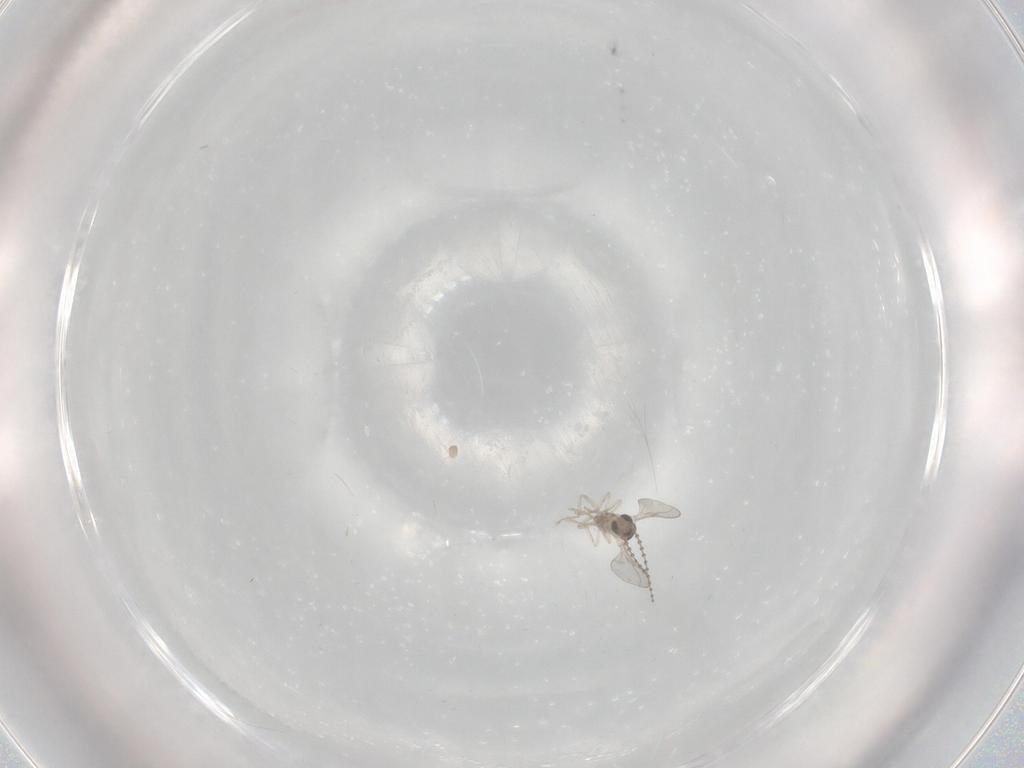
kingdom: Animalia
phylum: Arthropoda
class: Insecta
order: Diptera
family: Cecidomyiidae
